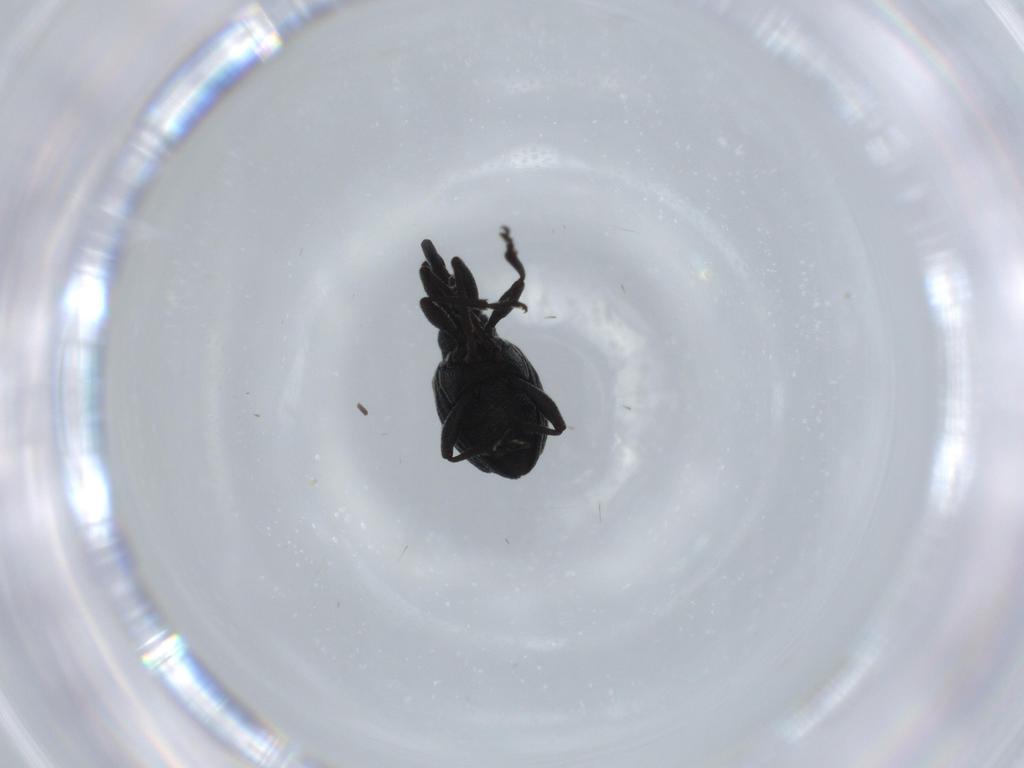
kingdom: Animalia
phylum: Arthropoda
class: Insecta
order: Coleoptera
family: Brentidae
